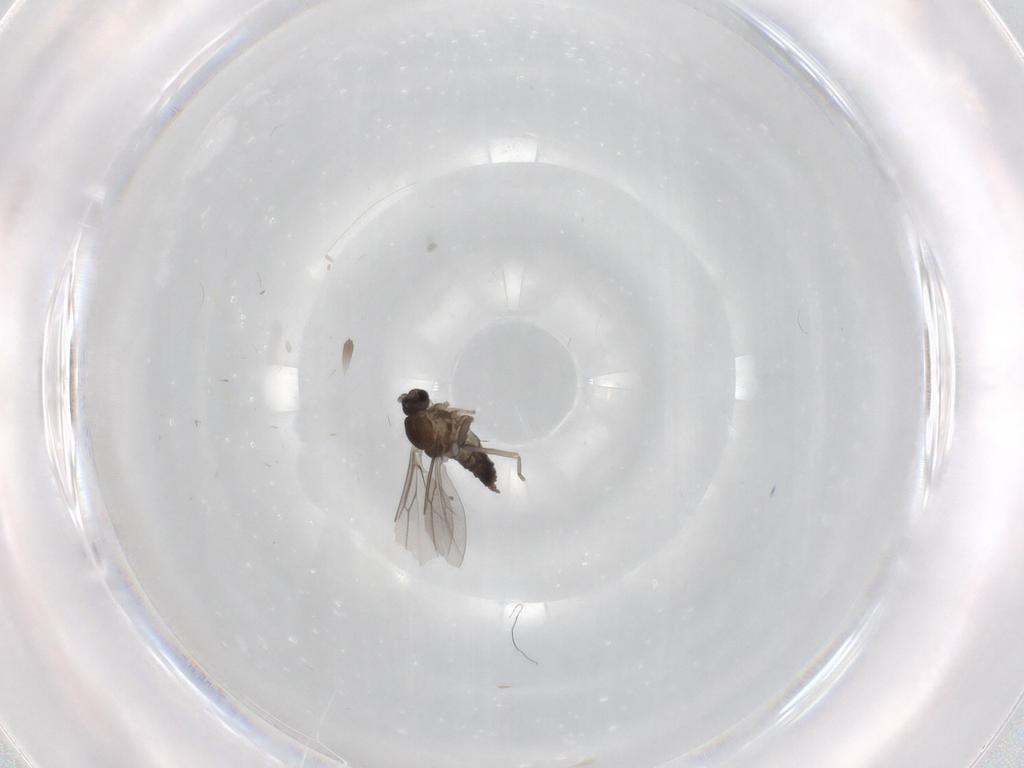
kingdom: Animalia
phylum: Arthropoda
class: Insecta
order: Diptera
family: Cecidomyiidae
